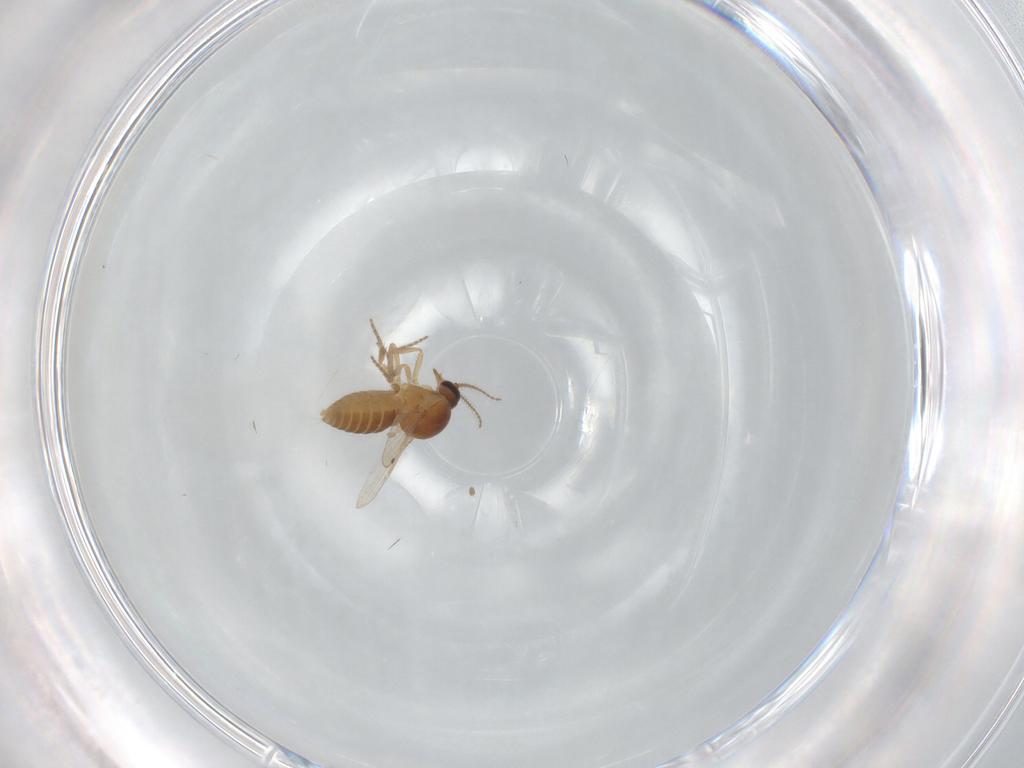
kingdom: Animalia
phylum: Arthropoda
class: Insecta
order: Diptera
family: Ceratopogonidae
